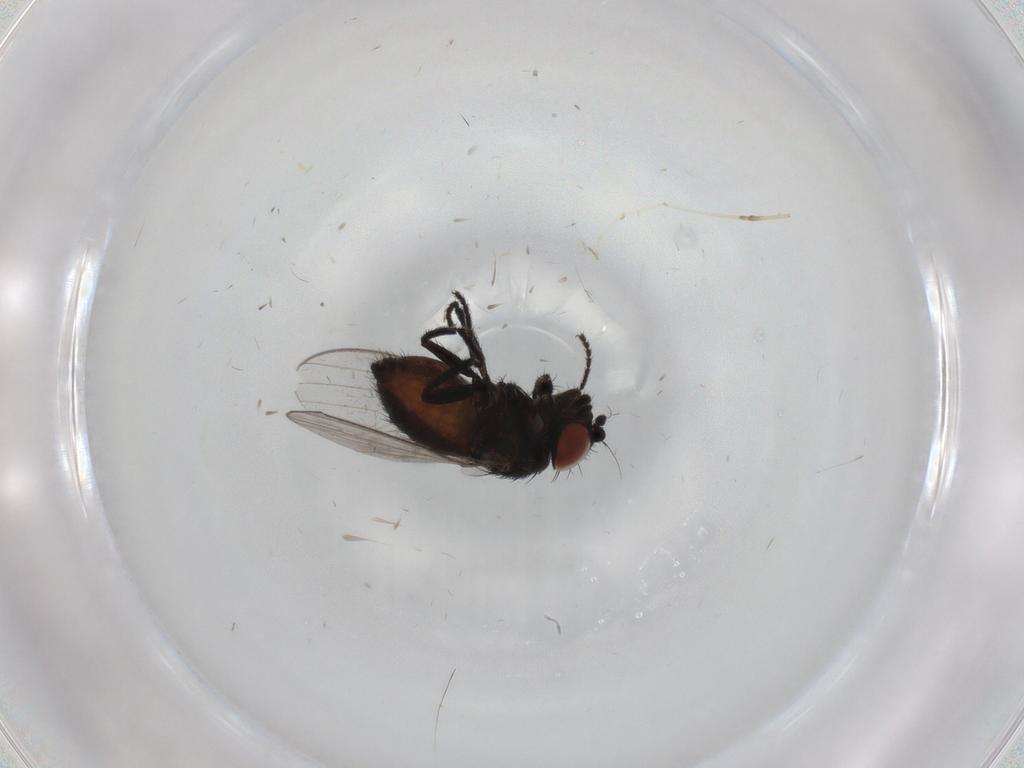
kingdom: Animalia
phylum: Arthropoda
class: Insecta
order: Diptera
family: Milichiidae
